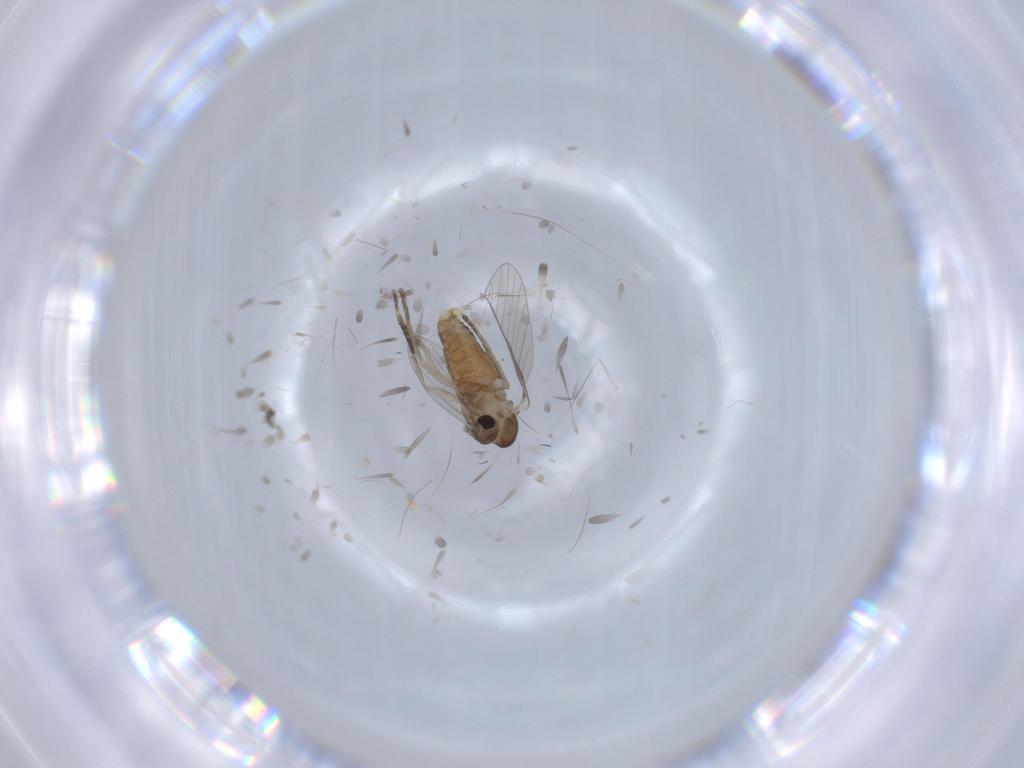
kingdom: Animalia
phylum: Arthropoda
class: Insecta
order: Diptera
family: Psychodidae
